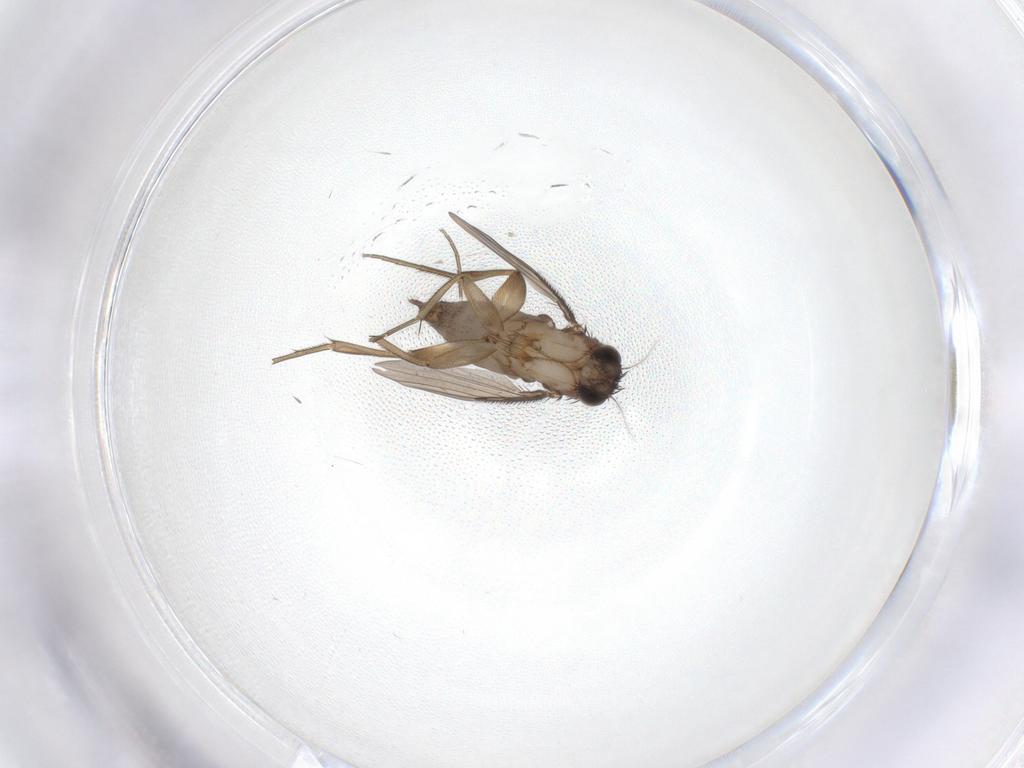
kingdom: Animalia
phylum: Arthropoda
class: Insecta
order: Diptera
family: Phoridae
